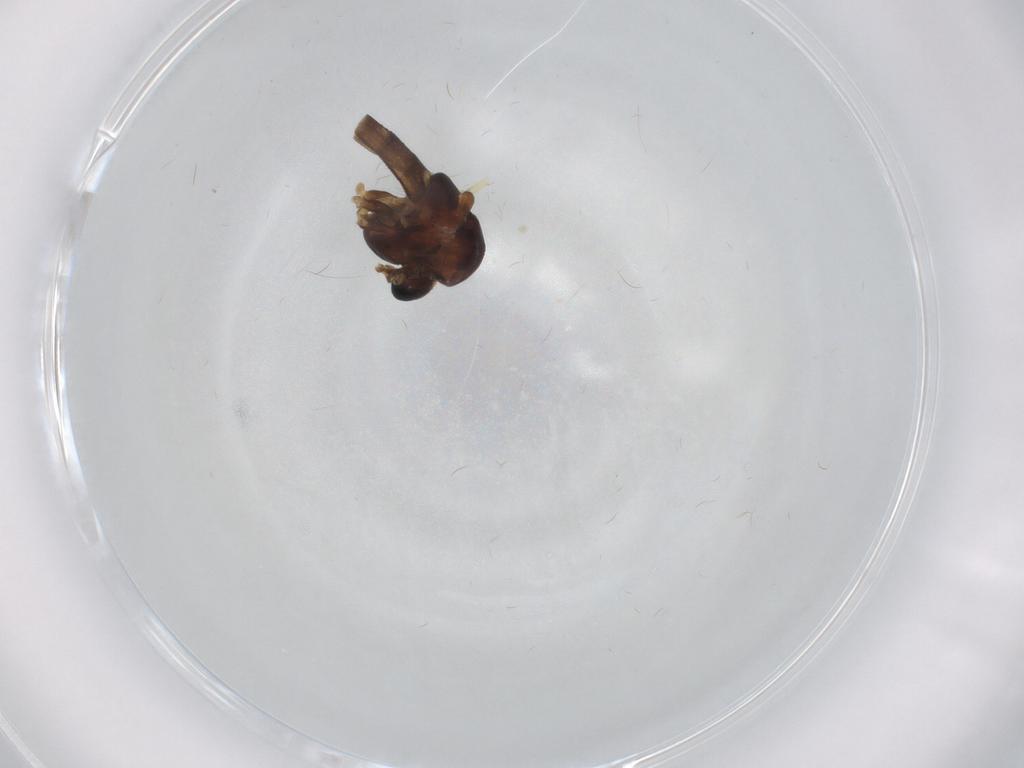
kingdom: Animalia
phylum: Arthropoda
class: Insecta
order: Diptera
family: Chironomidae
